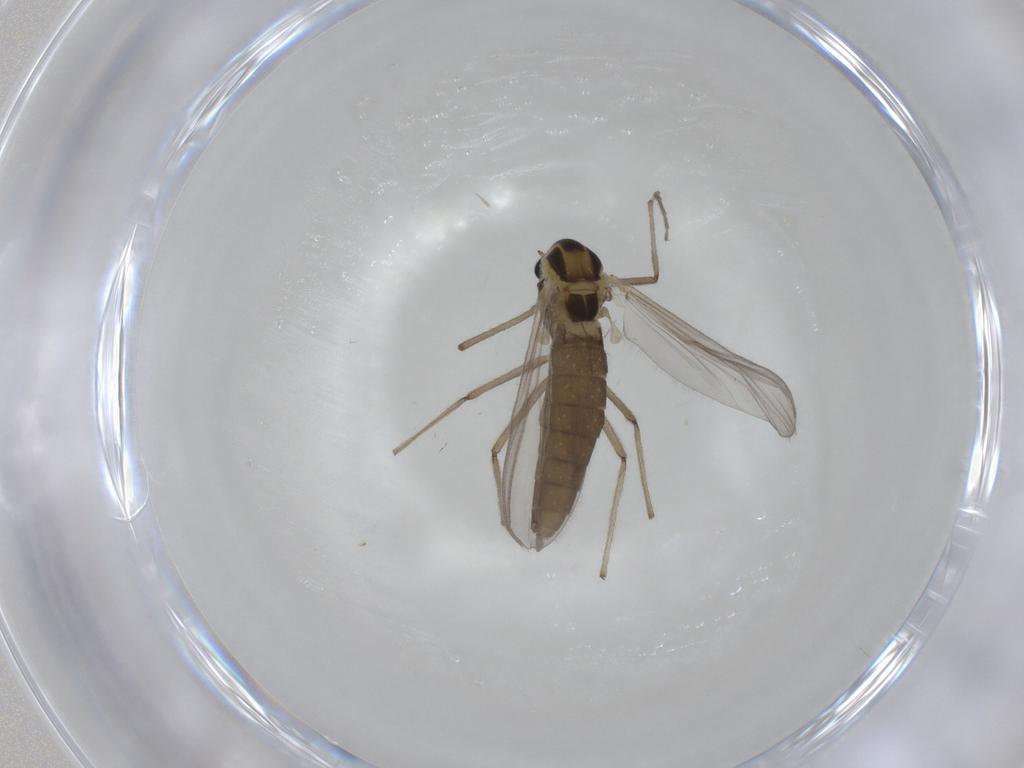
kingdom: Animalia
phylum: Arthropoda
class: Insecta
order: Diptera
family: Chironomidae
